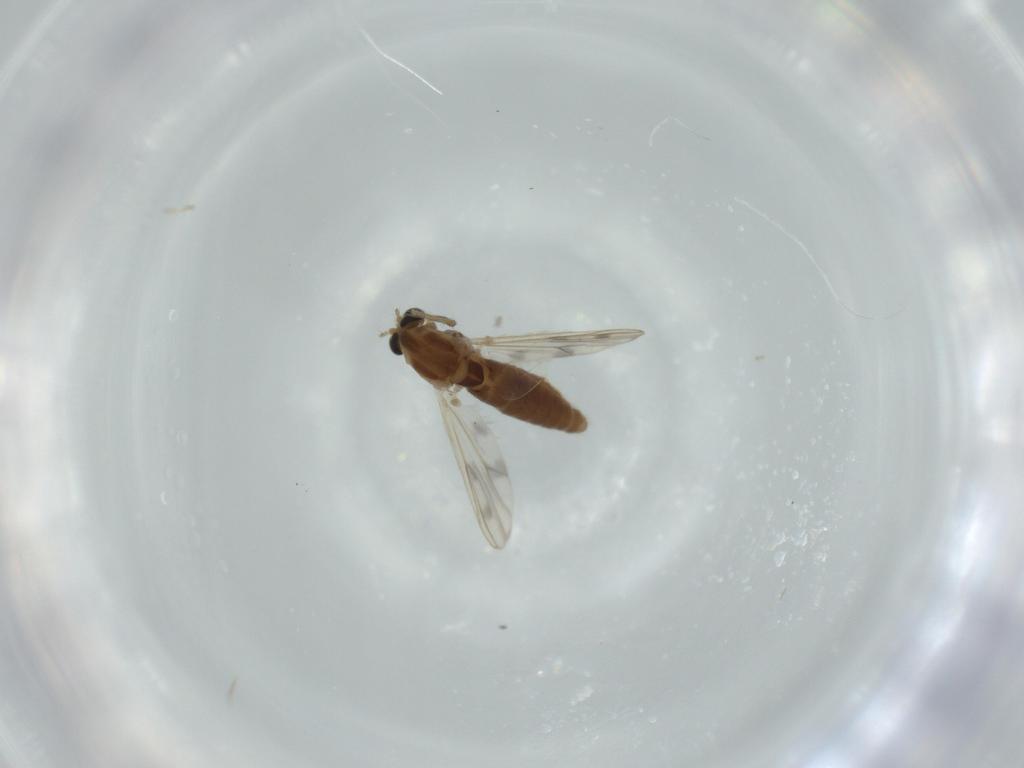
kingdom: Animalia
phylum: Arthropoda
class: Insecta
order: Diptera
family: Chironomidae
